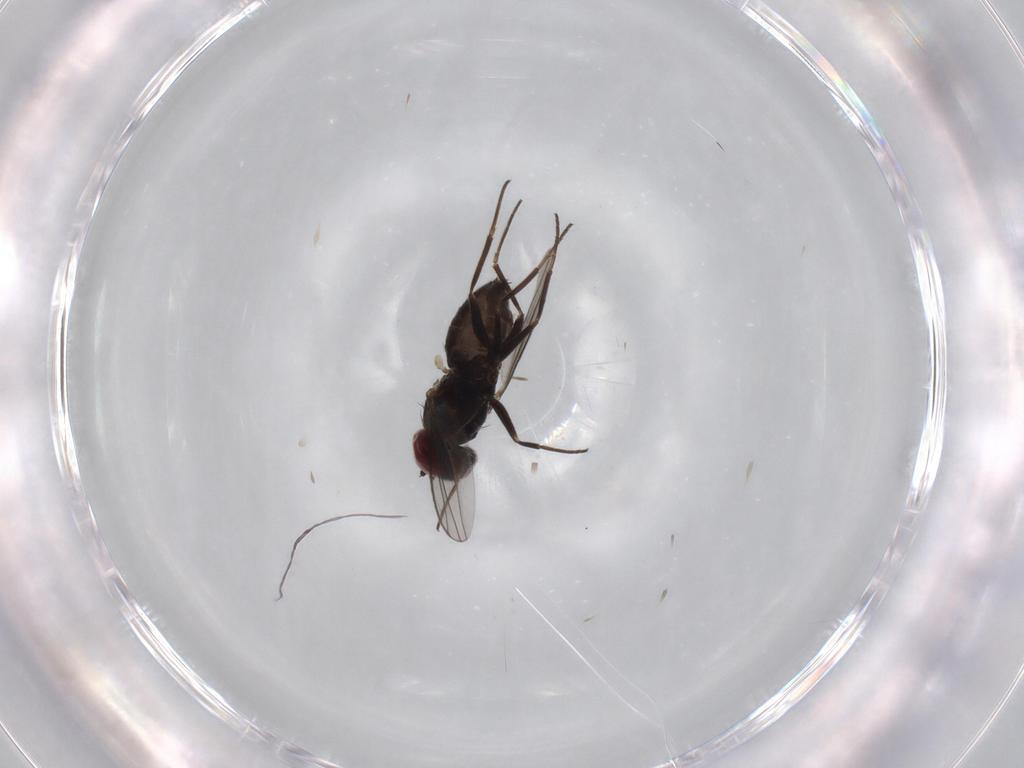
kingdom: Animalia
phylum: Arthropoda
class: Insecta
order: Diptera
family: Dolichopodidae
